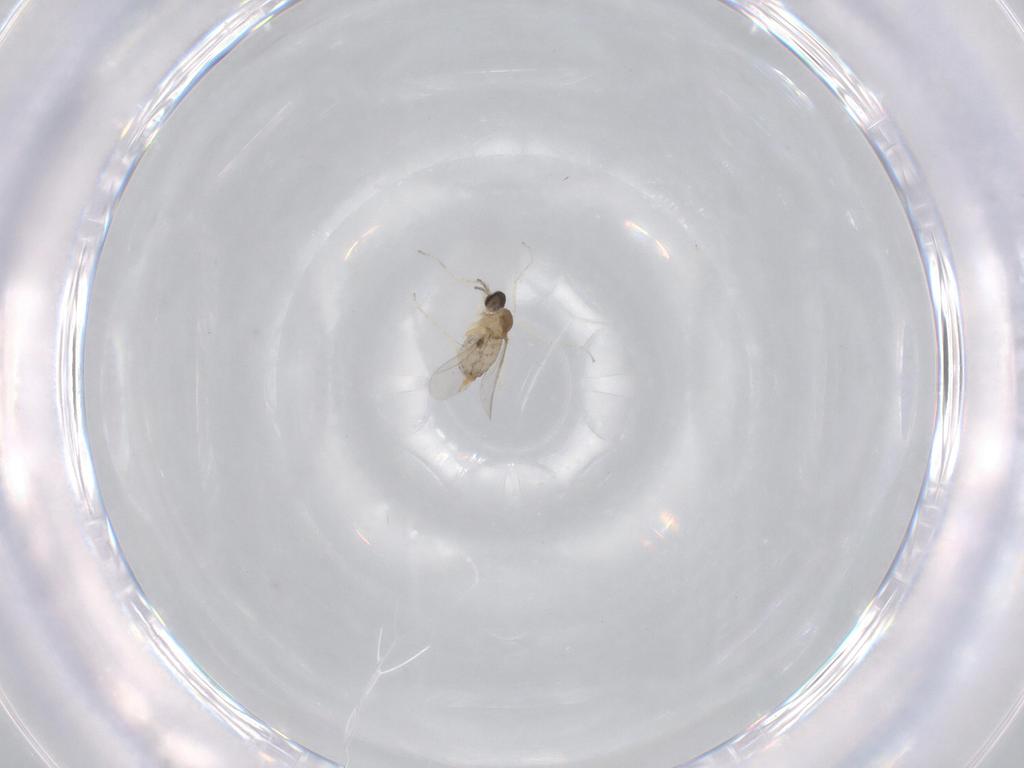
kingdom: Animalia
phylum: Arthropoda
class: Insecta
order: Diptera
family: Cecidomyiidae
